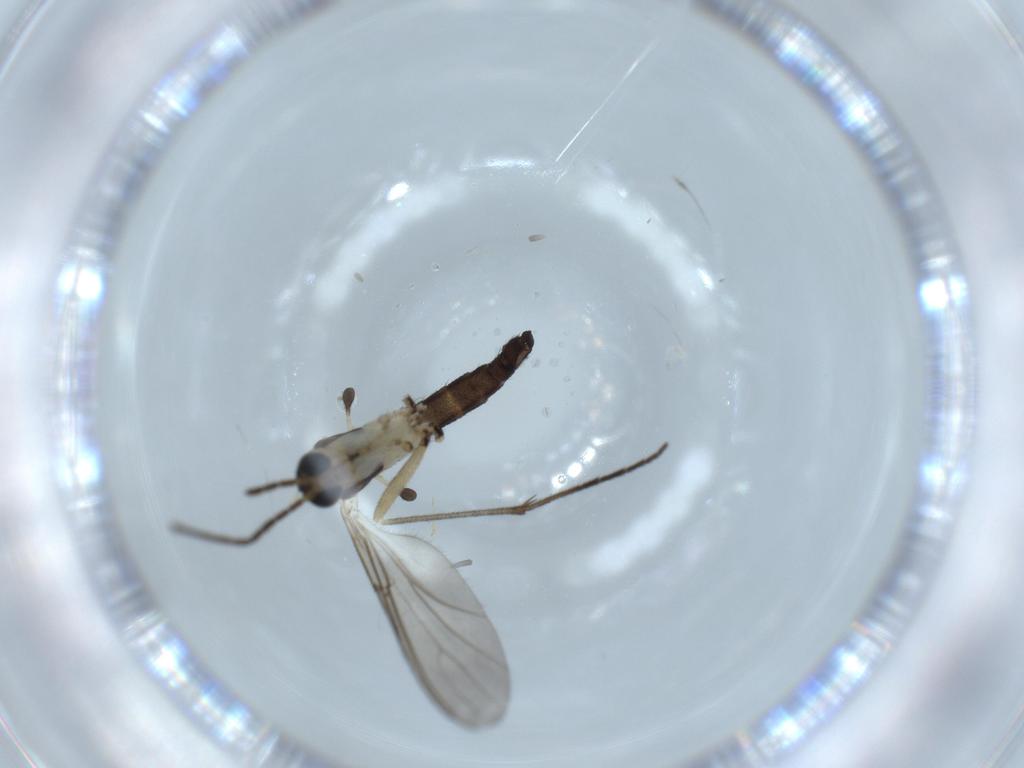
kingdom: Animalia
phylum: Arthropoda
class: Insecta
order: Diptera
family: Sciaridae
